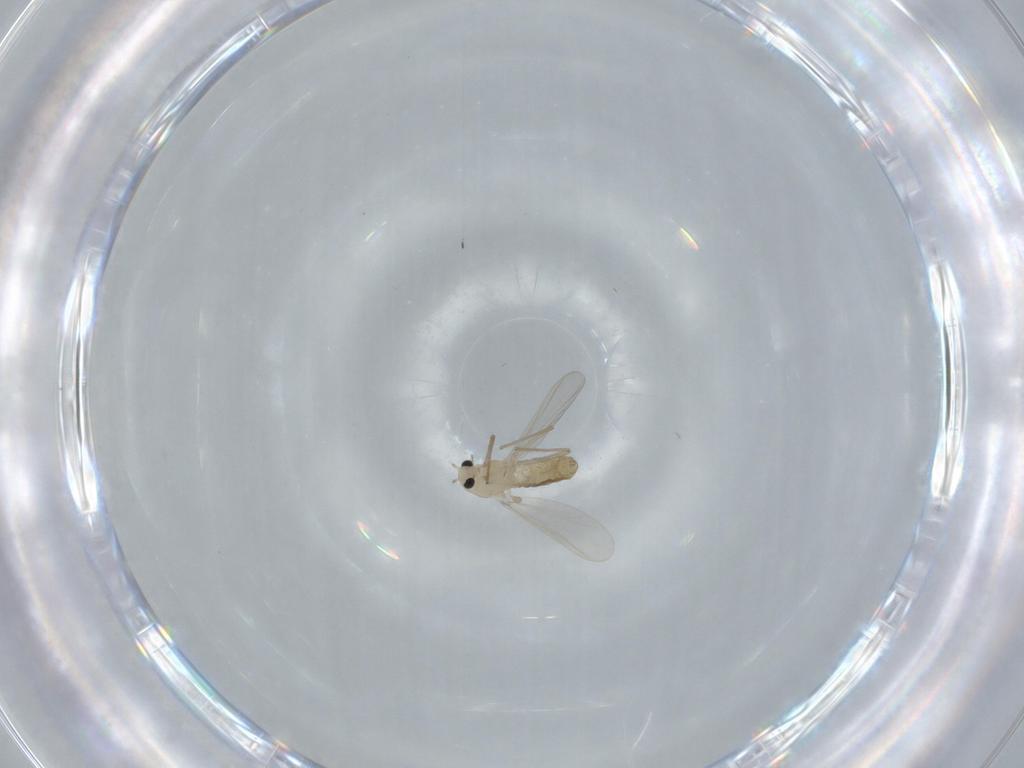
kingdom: Animalia
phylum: Arthropoda
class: Insecta
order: Diptera
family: Chironomidae
